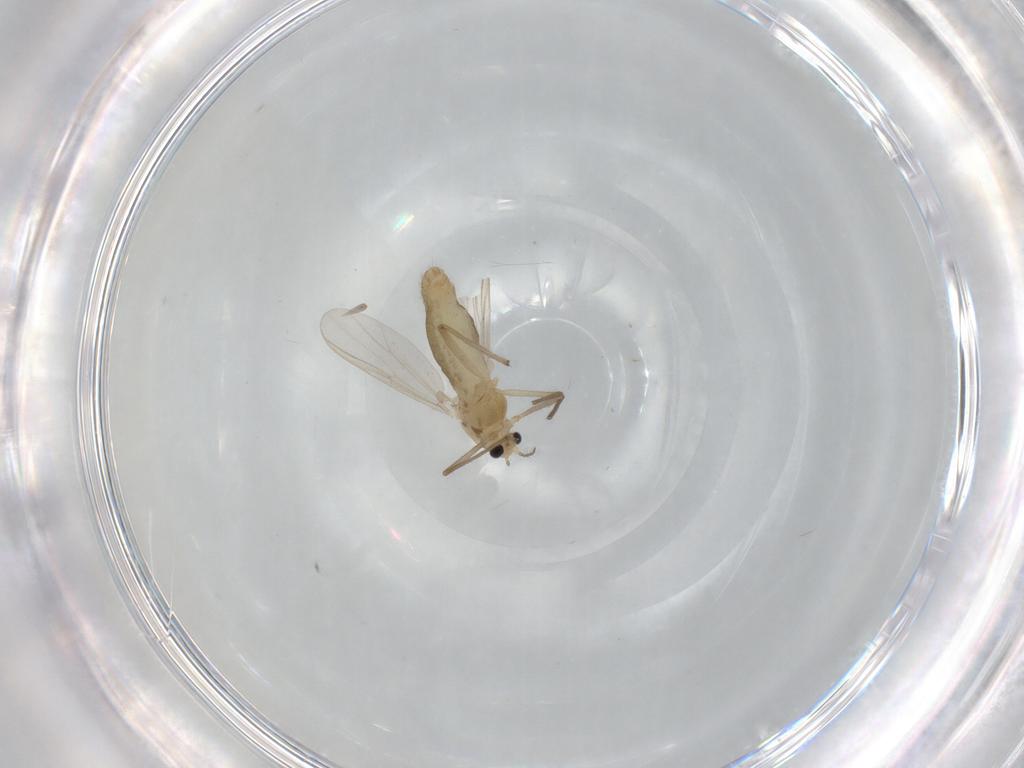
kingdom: Animalia
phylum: Arthropoda
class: Insecta
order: Diptera
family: Chironomidae
